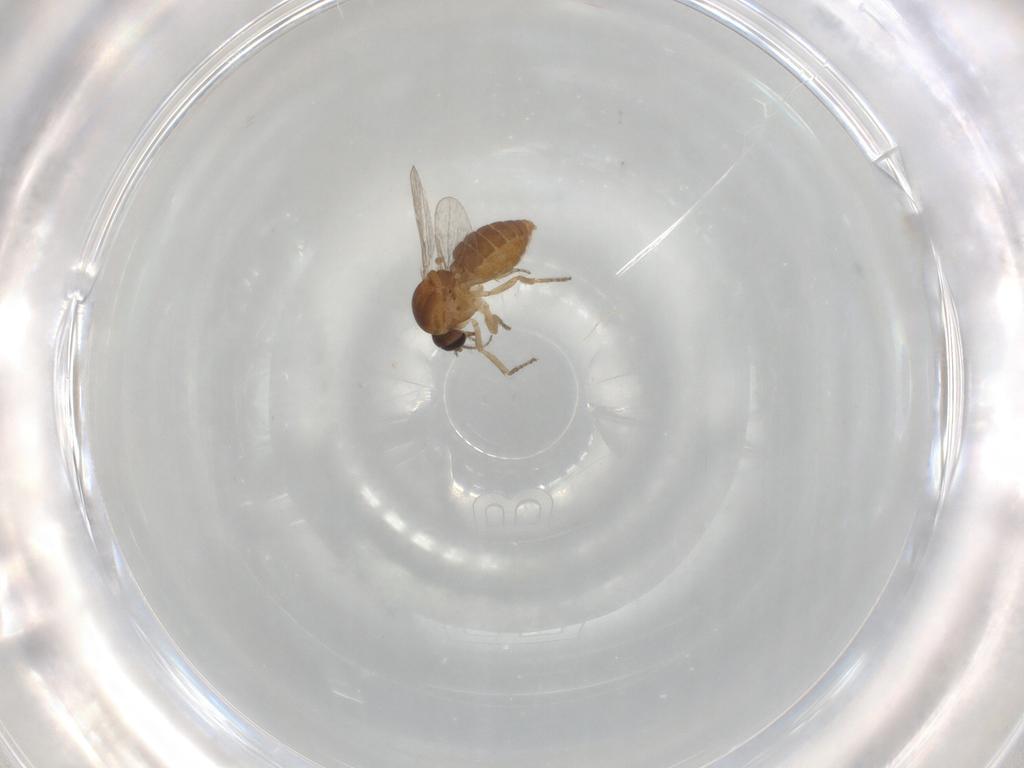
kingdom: Animalia
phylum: Arthropoda
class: Insecta
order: Diptera
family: Ceratopogonidae
